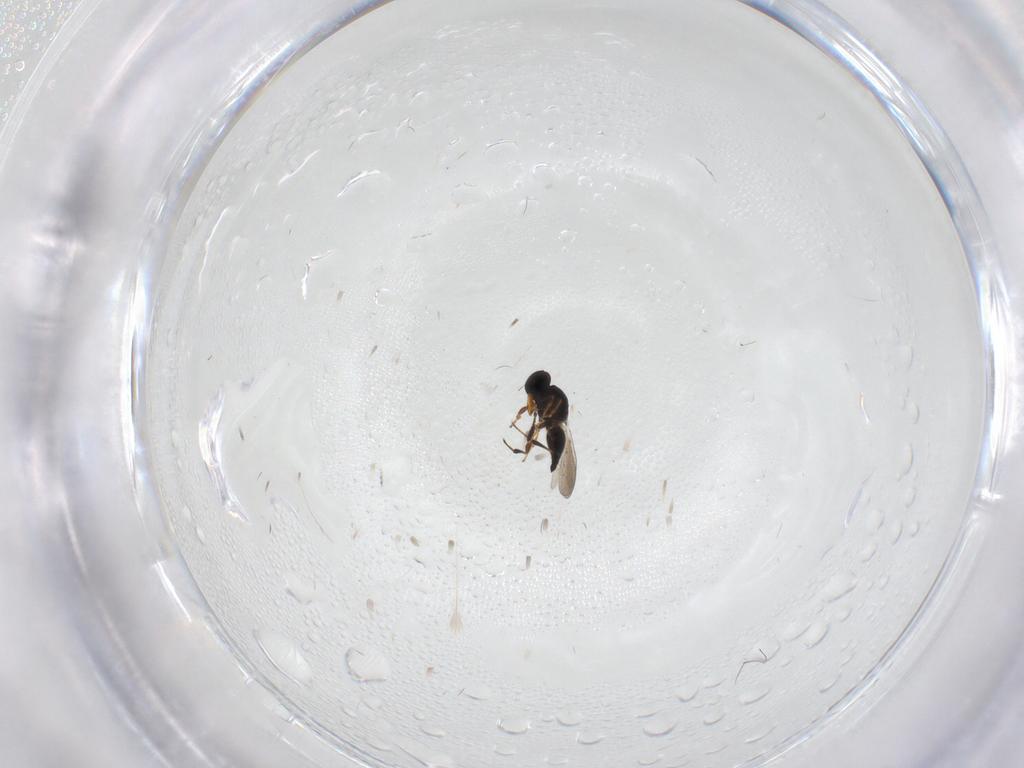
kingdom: Animalia
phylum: Arthropoda
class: Insecta
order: Hymenoptera
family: Platygastridae
